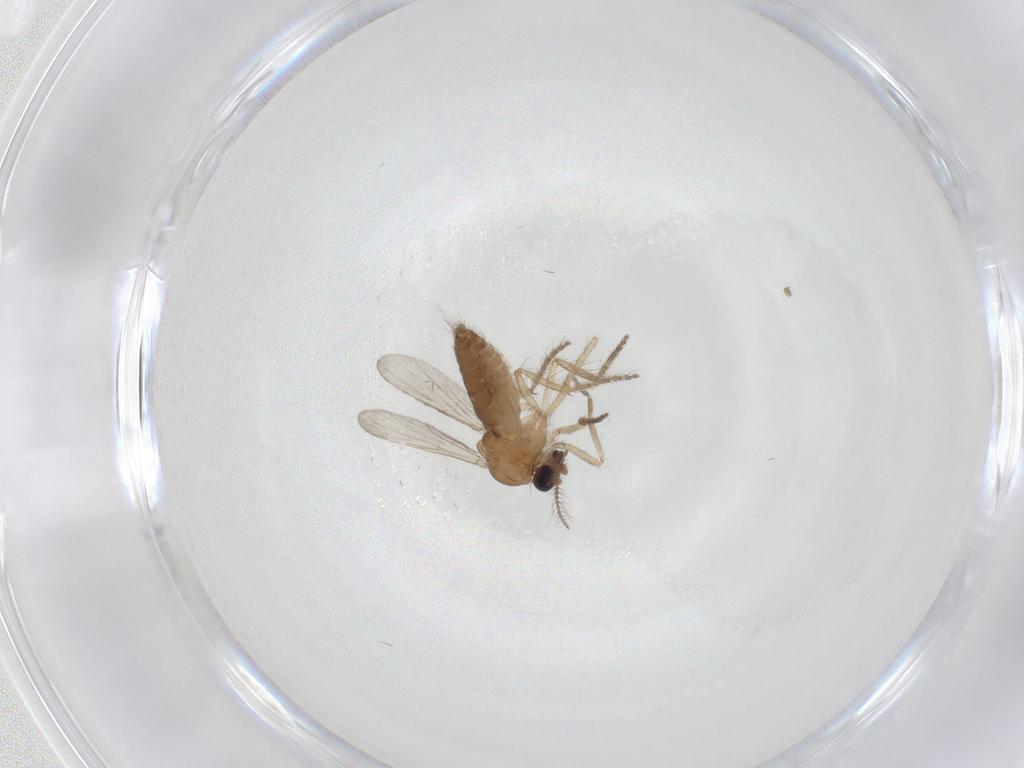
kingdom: Animalia
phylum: Arthropoda
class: Insecta
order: Diptera
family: Ceratopogonidae
